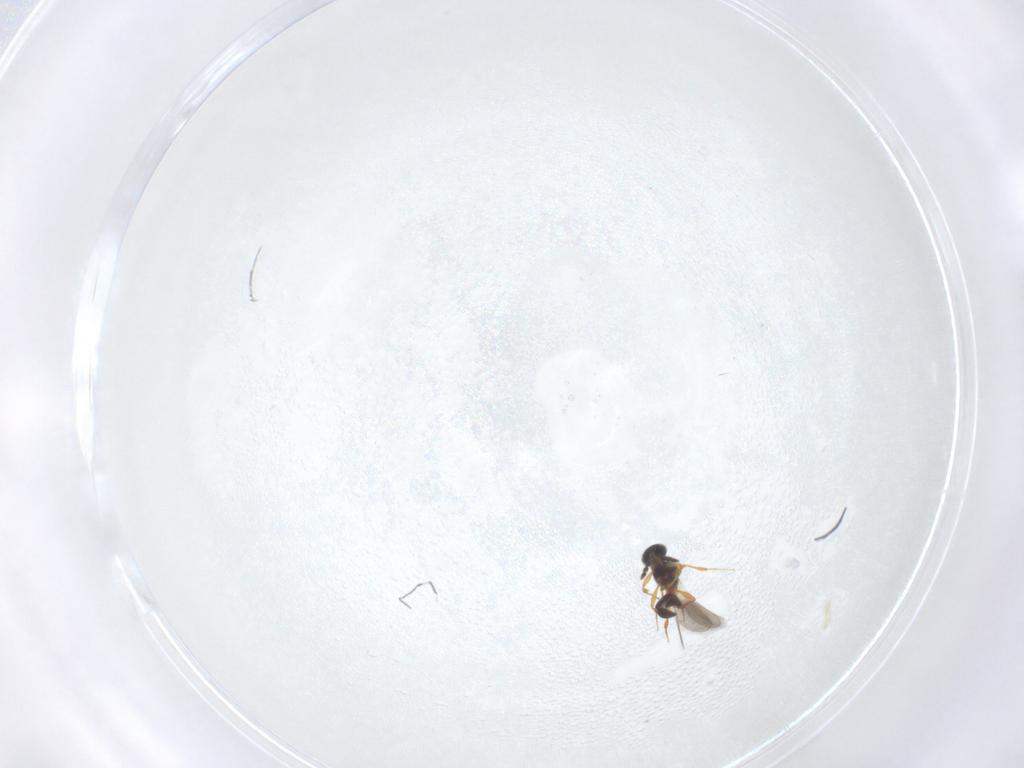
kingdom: Animalia
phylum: Arthropoda
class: Insecta
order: Hymenoptera
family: Platygastridae
